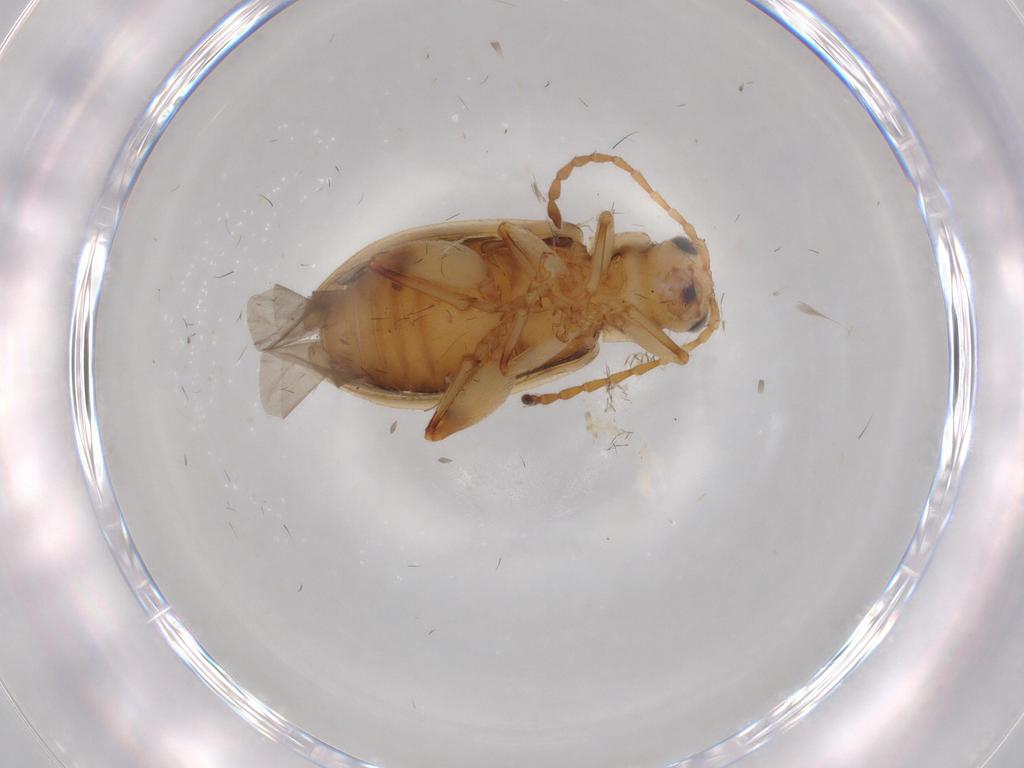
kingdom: Animalia
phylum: Arthropoda
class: Insecta
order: Coleoptera
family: Chrysomelidae
